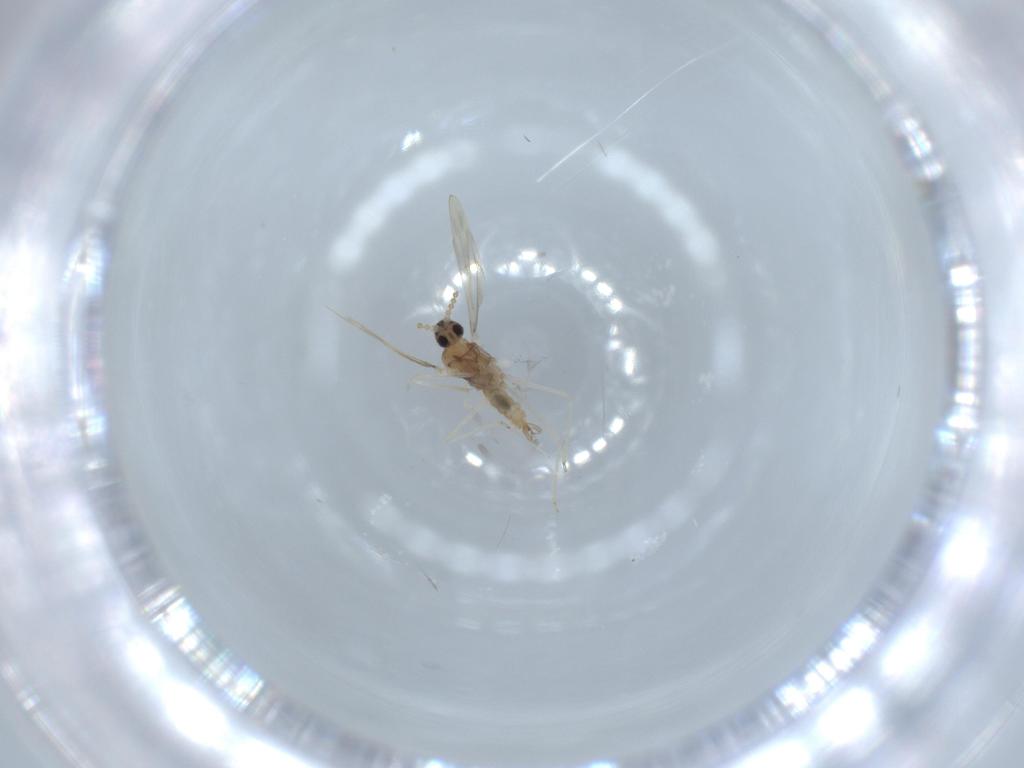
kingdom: Animalia
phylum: Arthropoda
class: Insecta
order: Diptera
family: Cecidomyiidae
